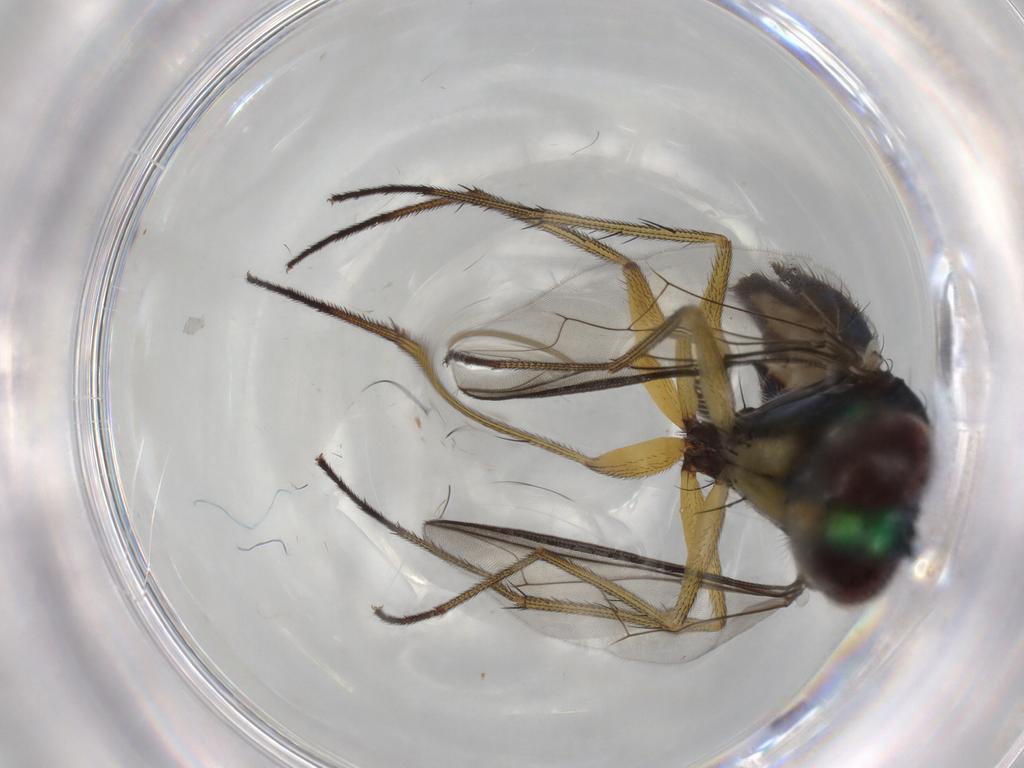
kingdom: Animalia
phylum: Arthropoda
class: Insecta
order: Diptera
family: Dolichopodidae
